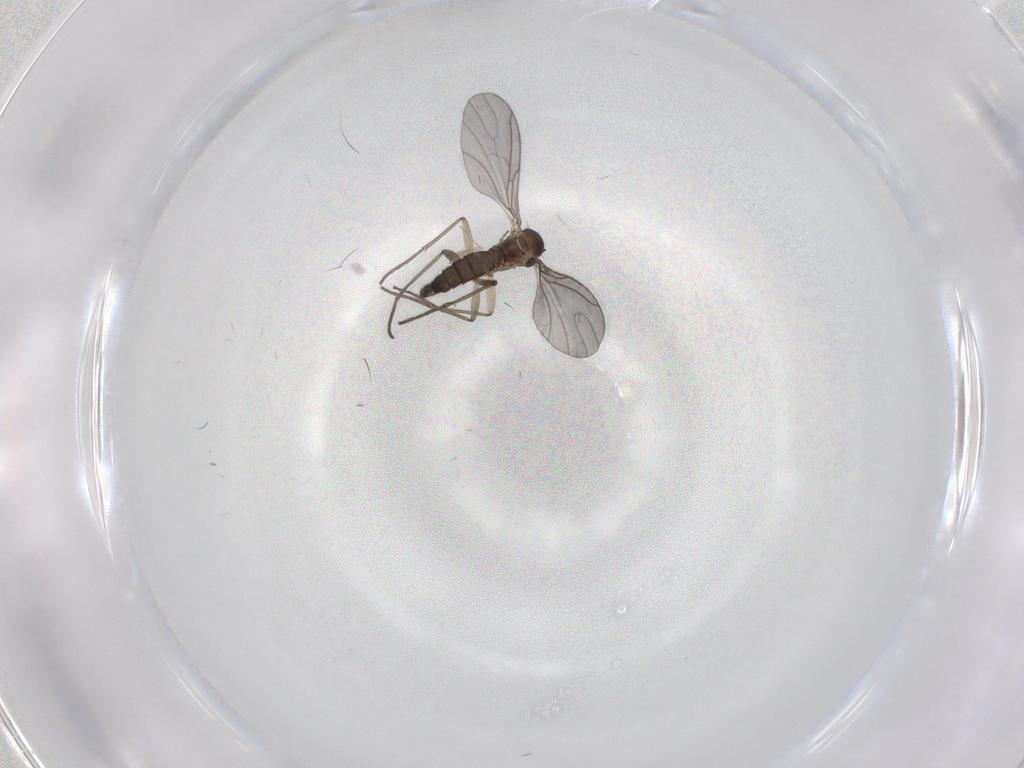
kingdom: Animalia
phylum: Arthropoda
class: Insecta
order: Diptera
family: Sciaridae
